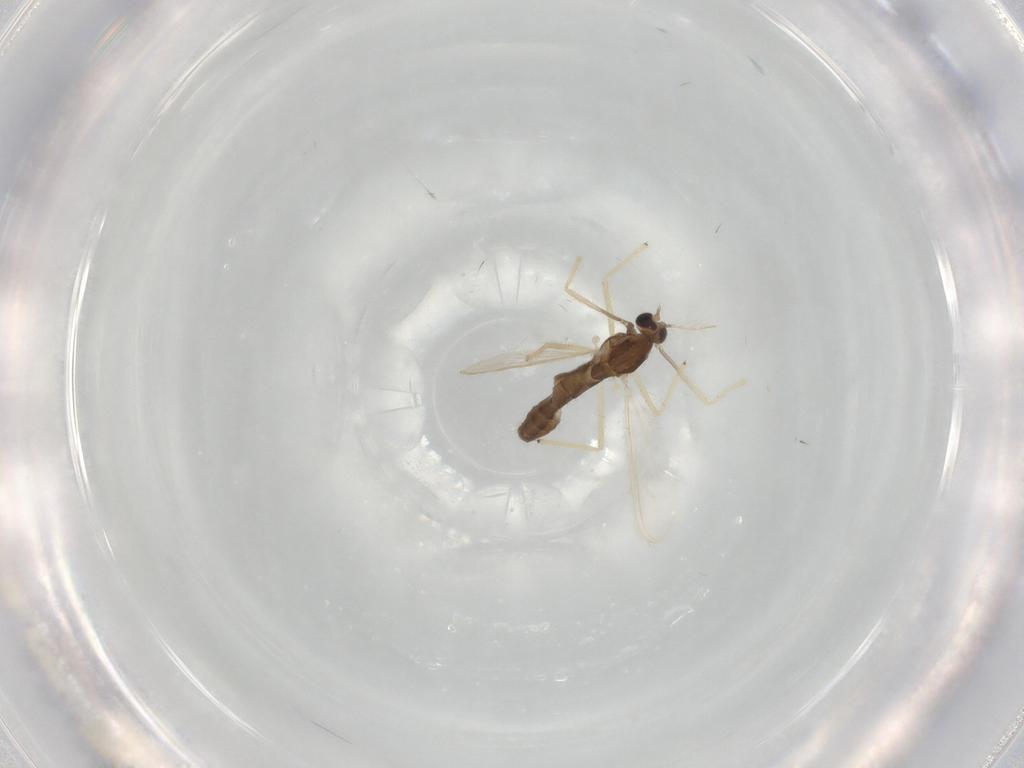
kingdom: Animalia
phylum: Arthropoda
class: Insecta
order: Diptera
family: Chironomidae
